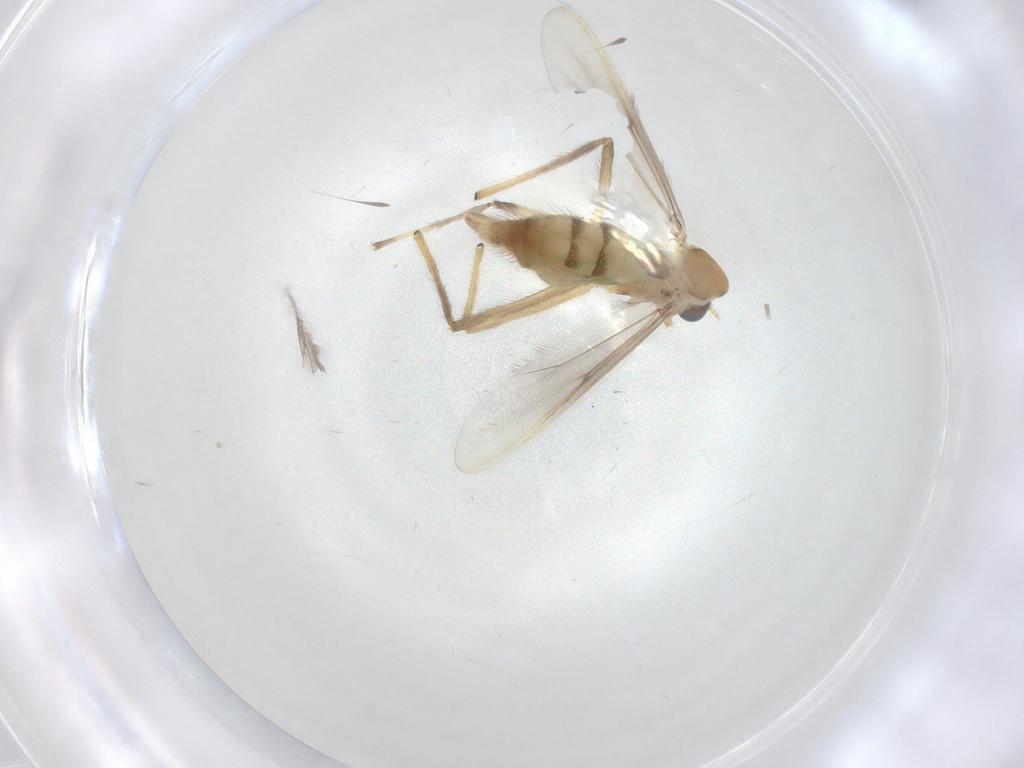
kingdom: Animalia
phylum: Arthropoda
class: Insecta
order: Diptera
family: Chironomidae
